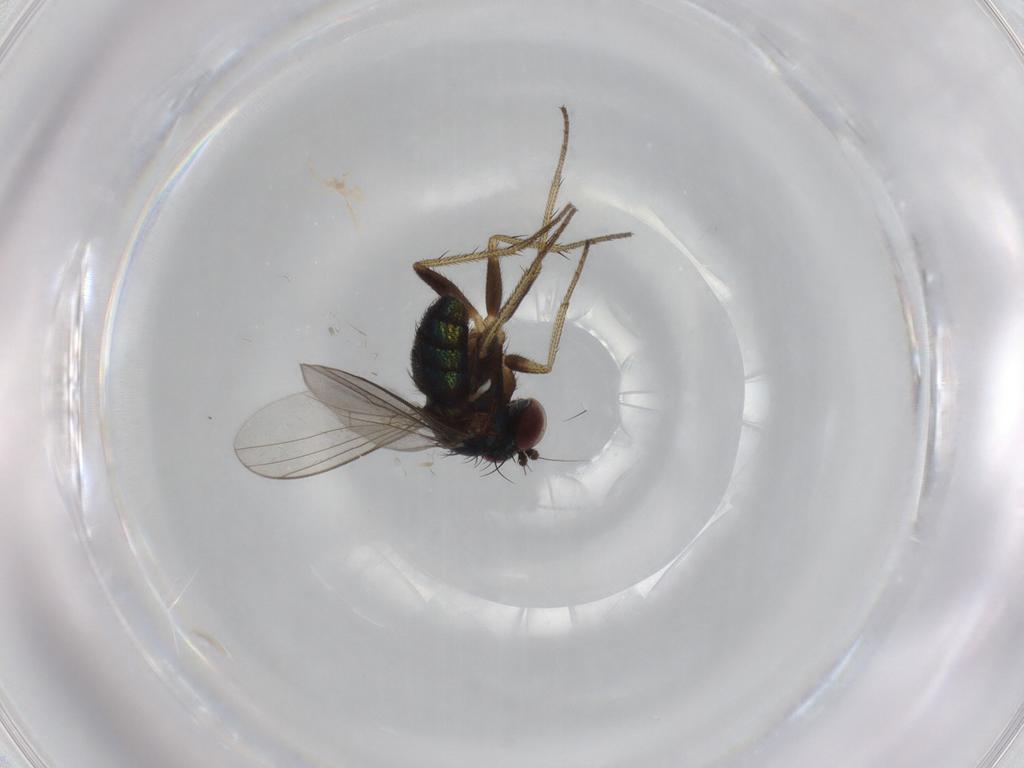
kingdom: Animalia
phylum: Arthropoda
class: Insecta
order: Diptera
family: Dolichopodidae
